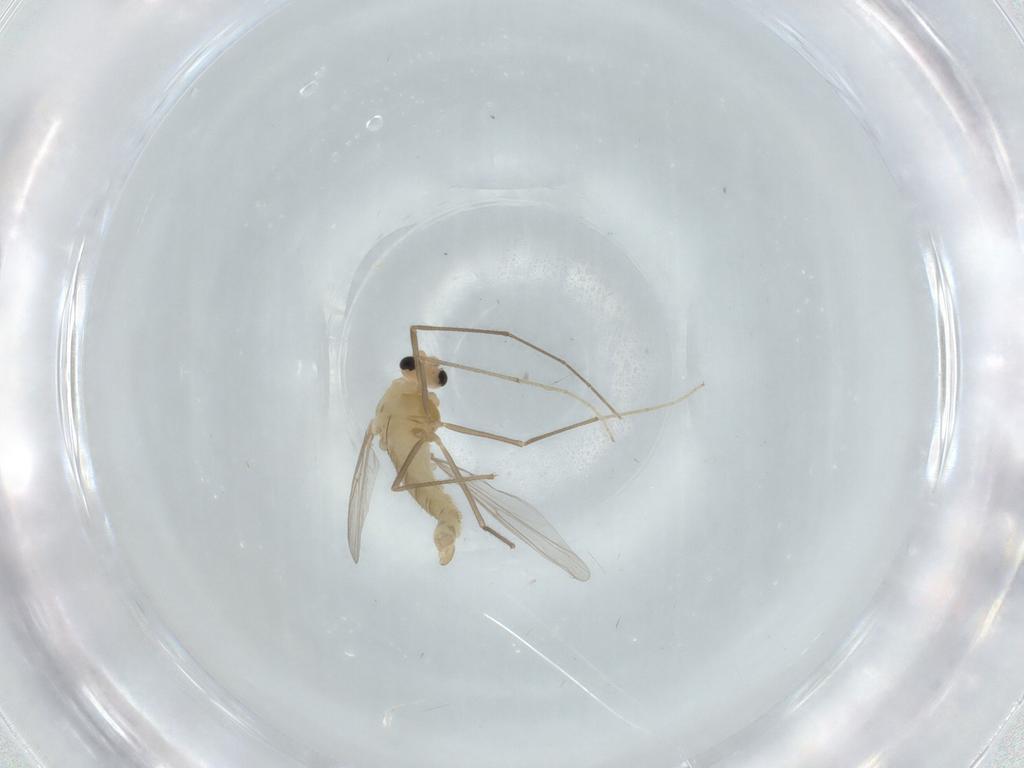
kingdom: Animalia
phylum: Arthropoda
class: Insecta
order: Diptera
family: Chironomidae
